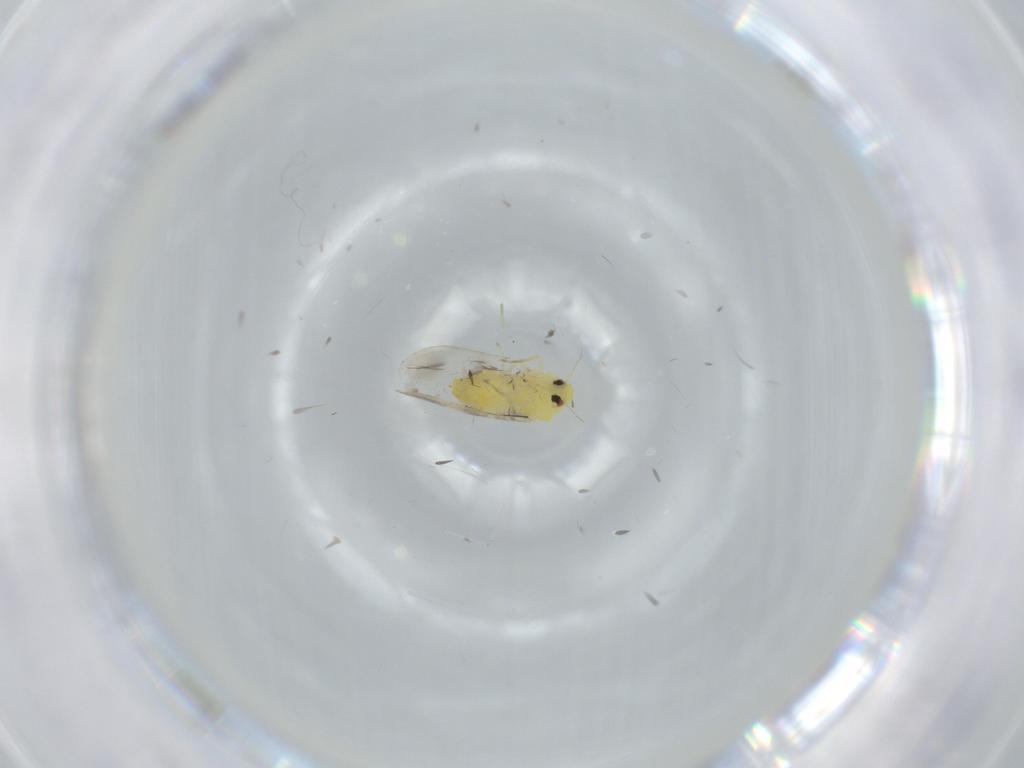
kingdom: Animalia
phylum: Arthropoda
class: Insecta
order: Hemiptera
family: Aleyrodidae
